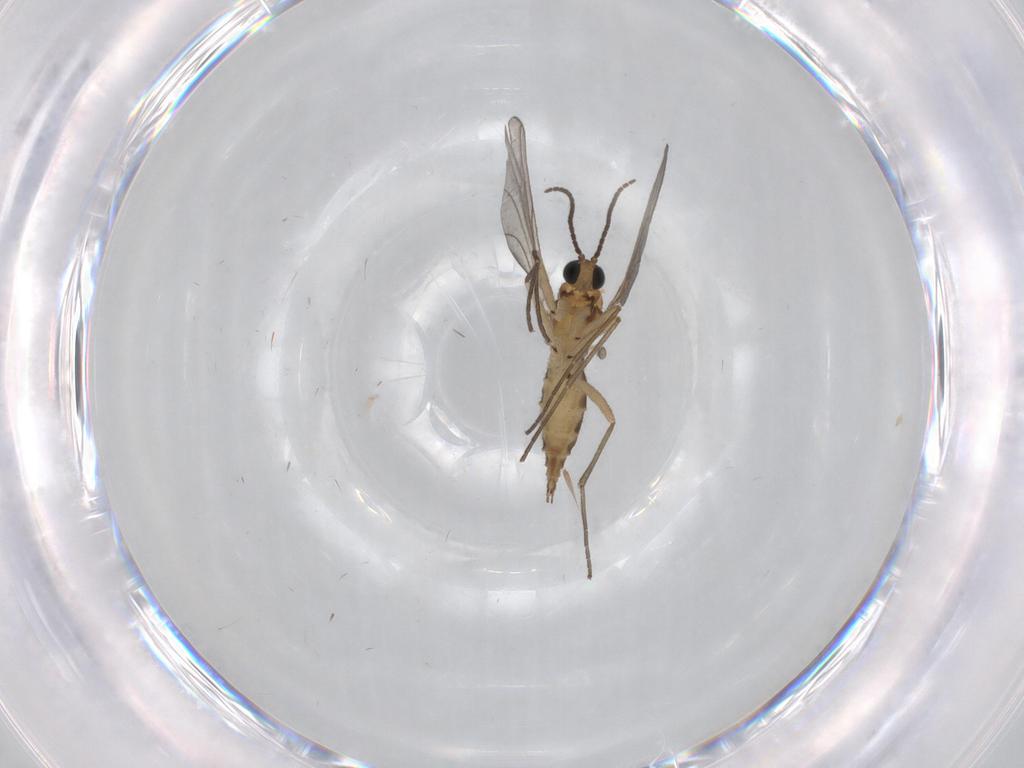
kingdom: Animalia
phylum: Arthropoda
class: Insecta
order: Diptera
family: Sciaridae
